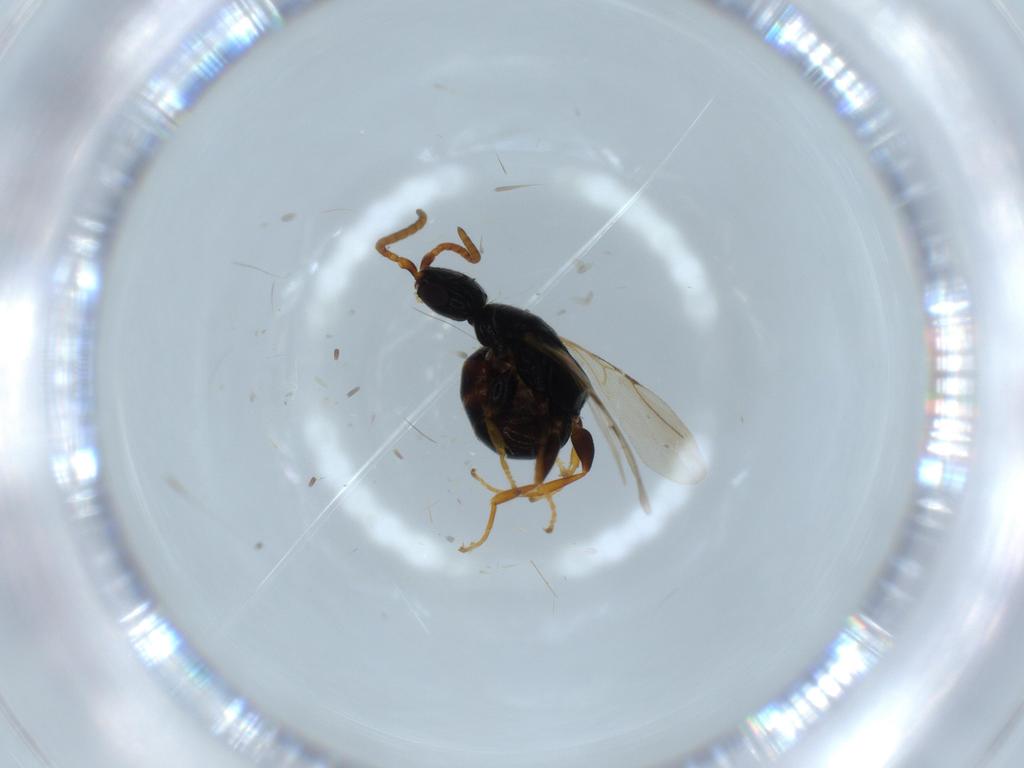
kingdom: Animalia
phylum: Arthropoda
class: Insecta
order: Hymenoptera
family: Bethylidae
